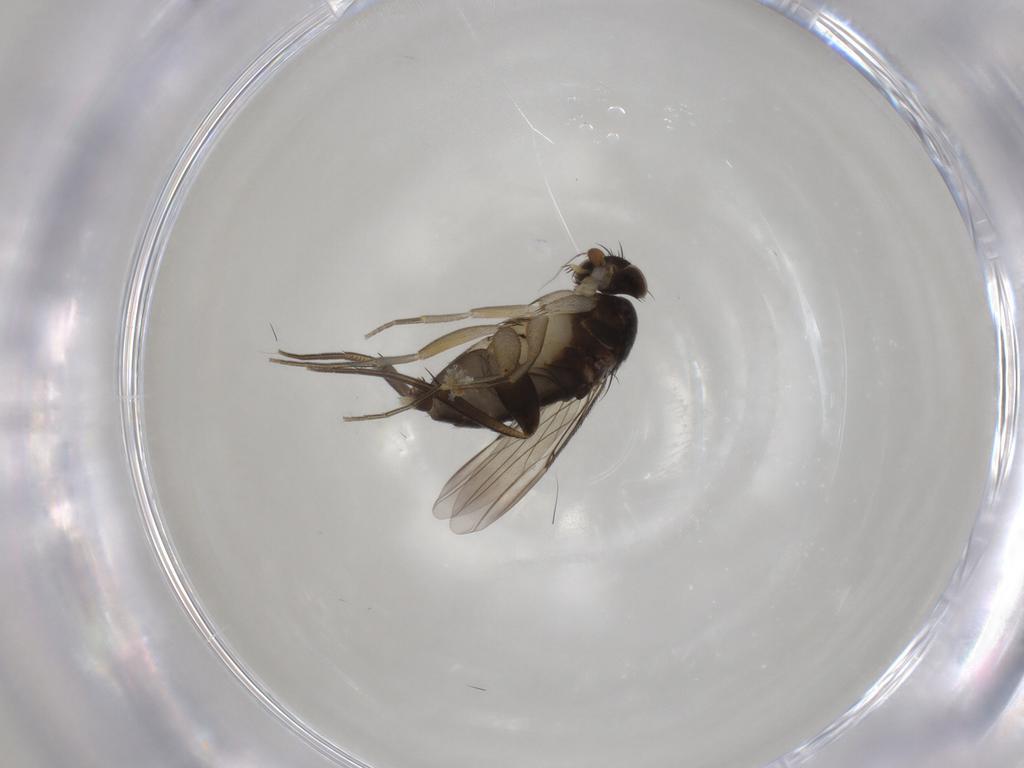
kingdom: Animalia
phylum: Arthropoda
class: Insecta
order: Diptera
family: Phoridae
